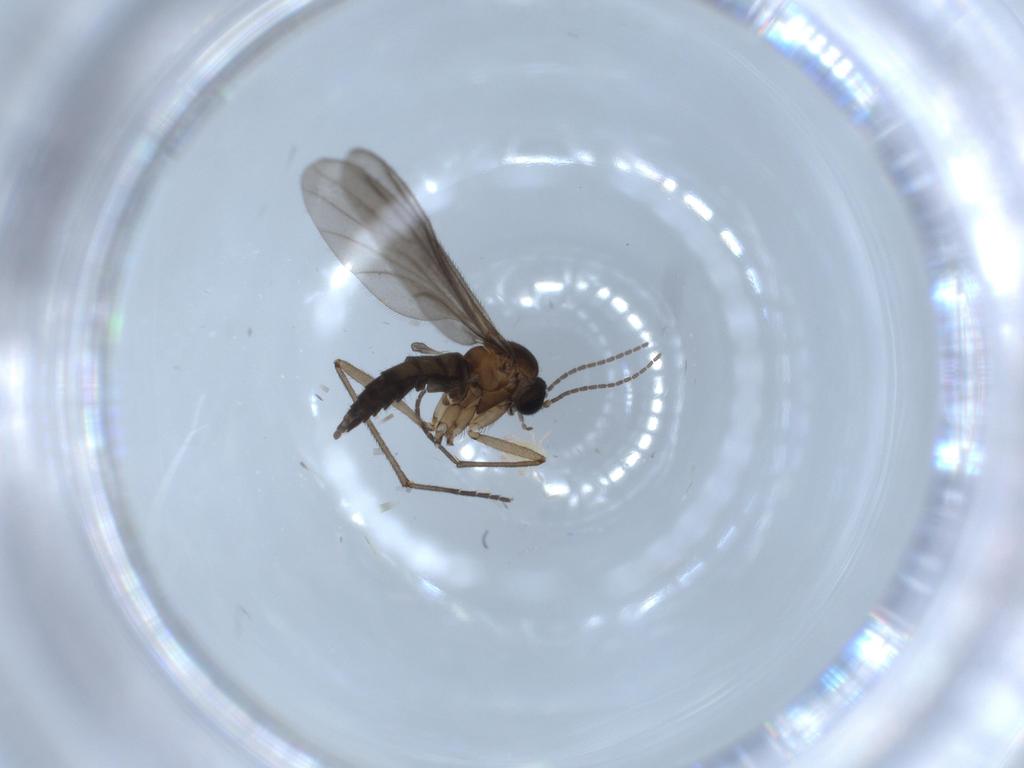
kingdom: Animalia
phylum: Arthropoda
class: Insecta
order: Diptera
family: Sciaridae
